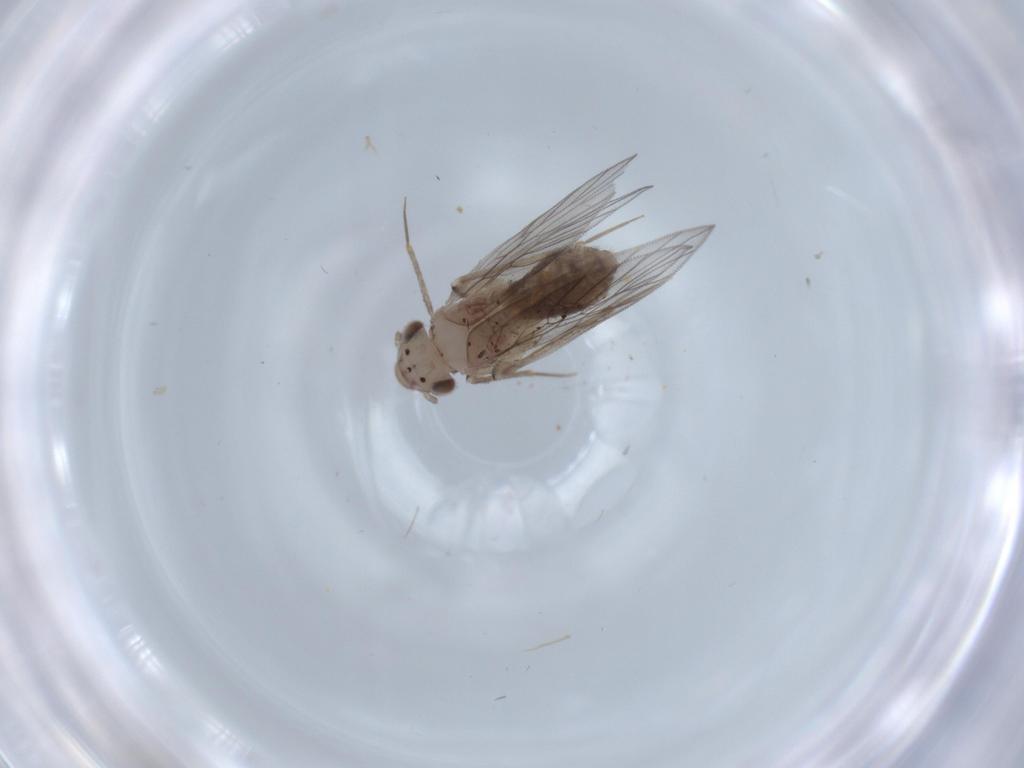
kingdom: Animalia
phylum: Arthropoda
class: Insecta
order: Psocodea
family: Lepidopsocidae
